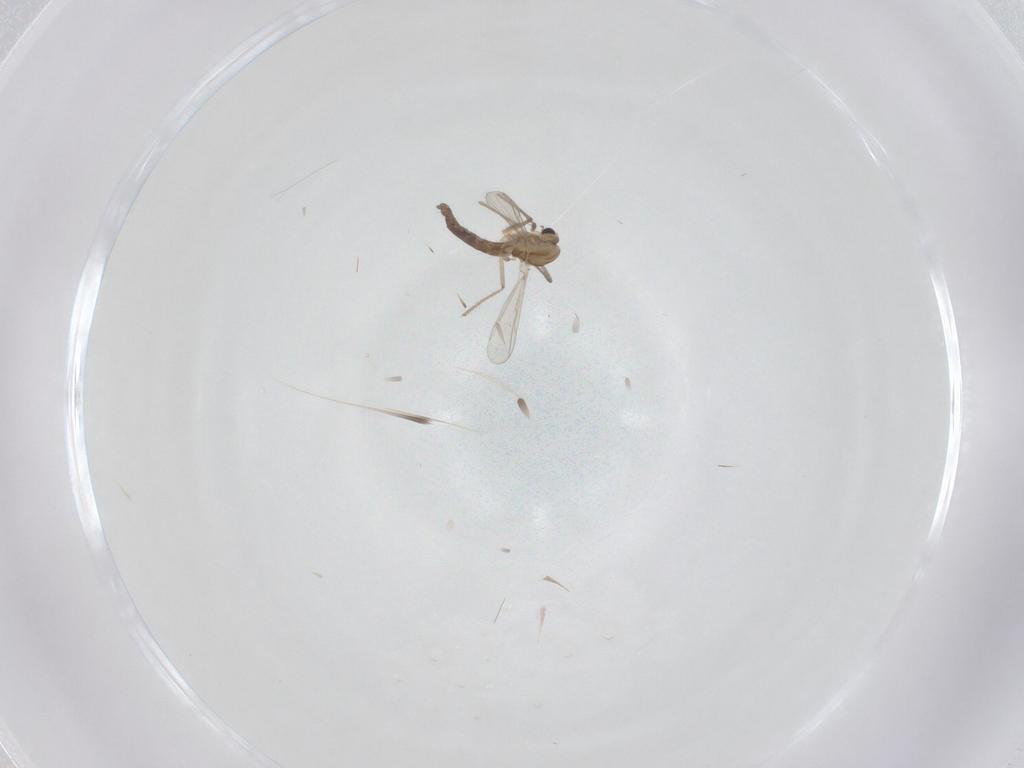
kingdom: Animalia
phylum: Arthropoda
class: Insecta
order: Diptera
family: Chironomidae
